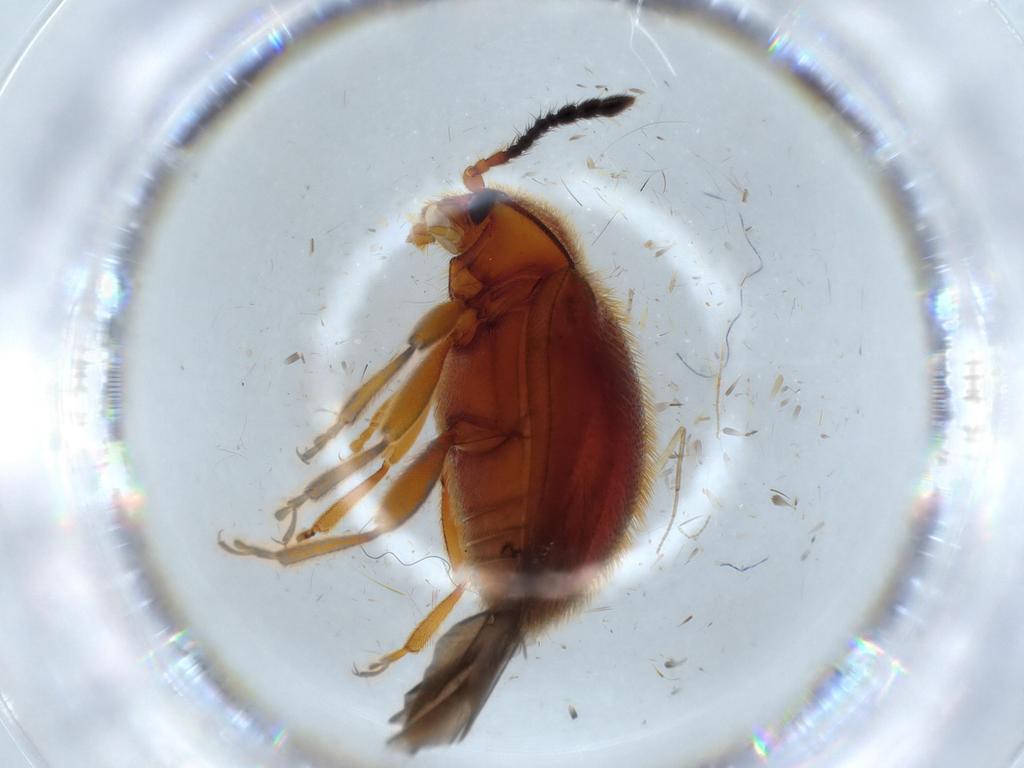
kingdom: Animalia
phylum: Arthropoda
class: Insecta
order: Coleoptera
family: Endomychidae
